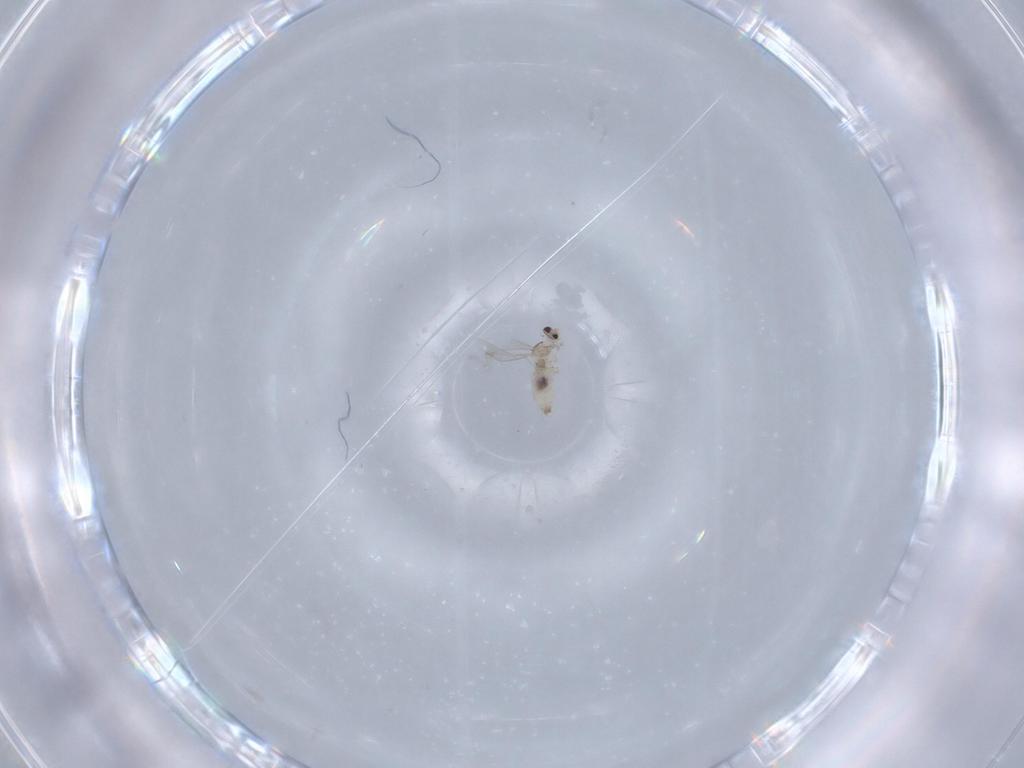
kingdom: Animalia
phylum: Arthropoda
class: Insecta
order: Diptera
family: Cecidomyiidae
